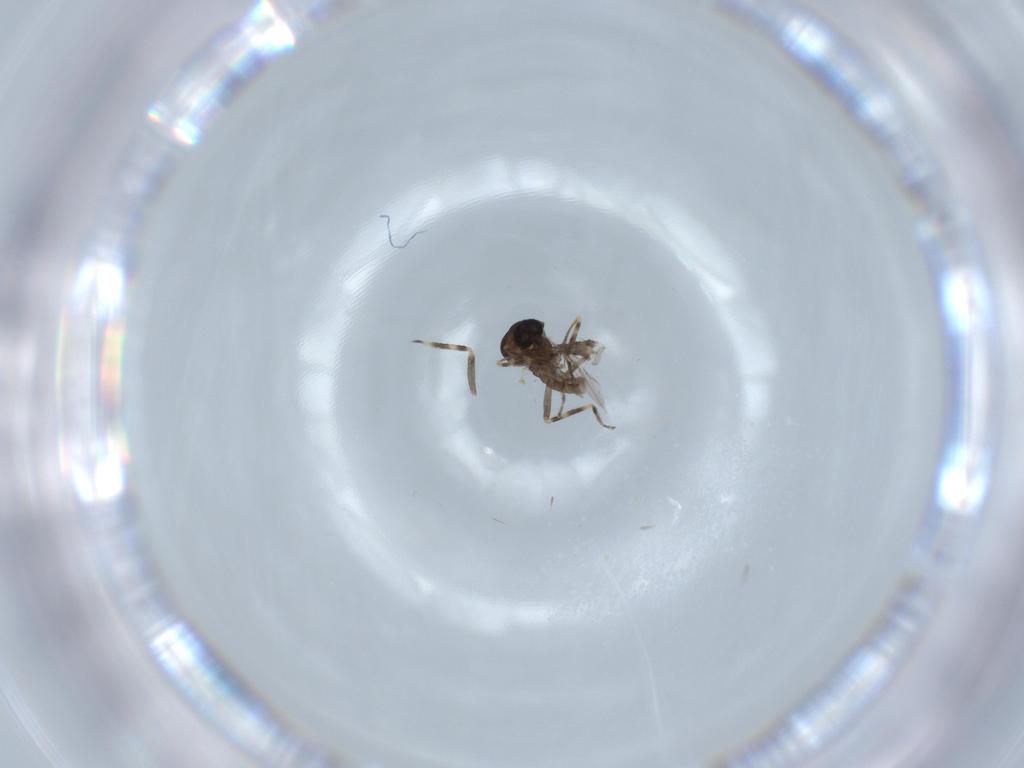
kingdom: Animalia
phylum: Arthropoda
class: Insecta
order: Diptera
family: Ceratopogonidae
